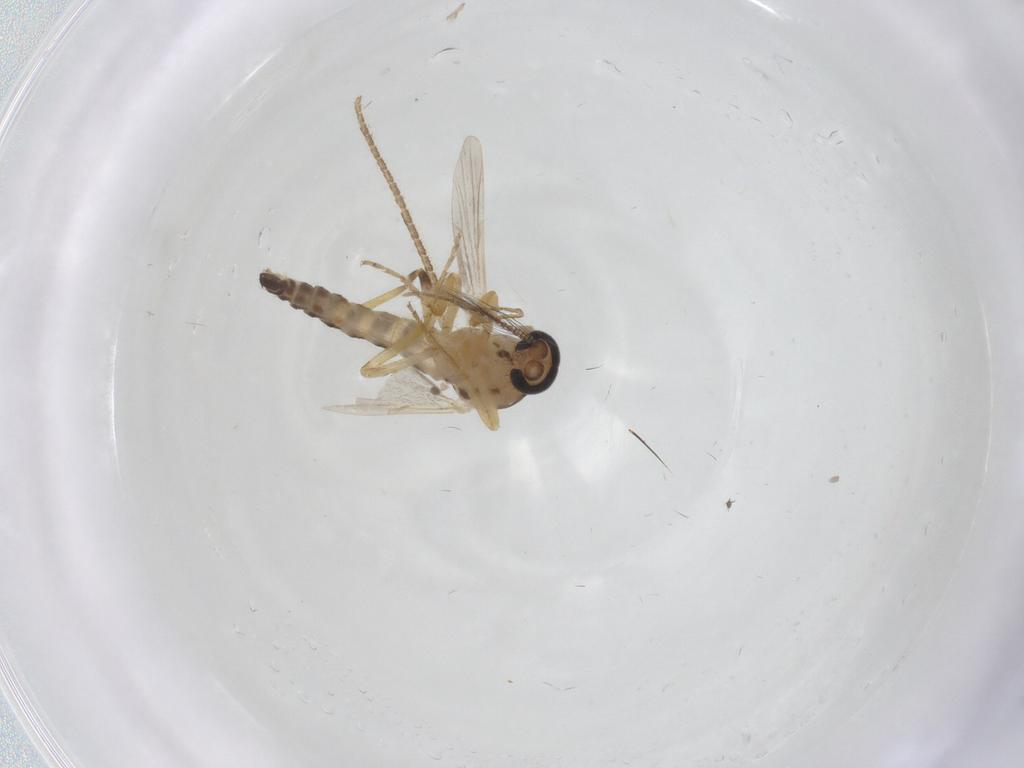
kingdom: Animalia
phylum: Arthropoda
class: Insecta
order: Diptera
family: Ceratopogonidae
